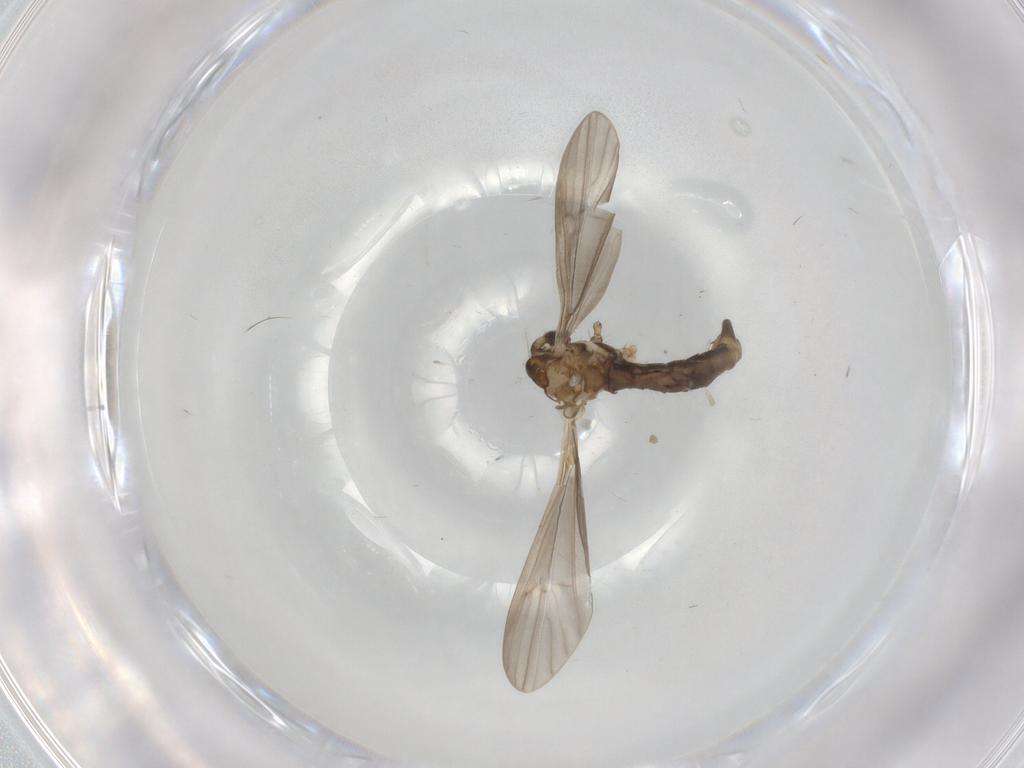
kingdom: Animalia
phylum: Arthropoda
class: Insecta
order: Diptera
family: Limoniidae
